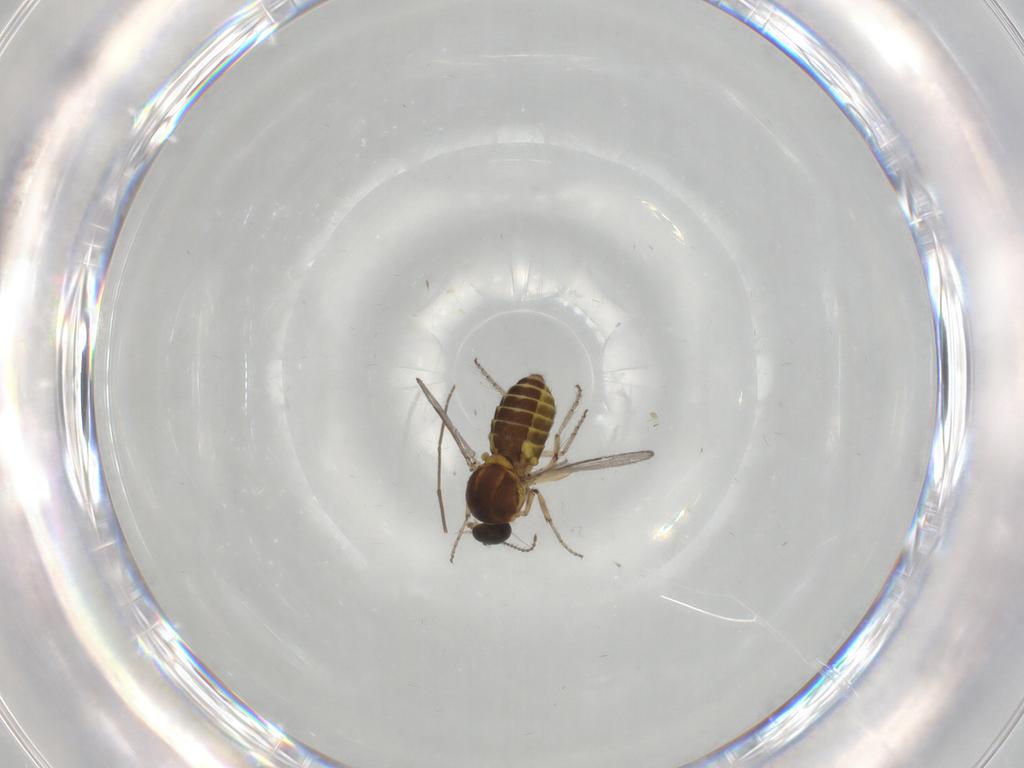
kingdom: Animalia
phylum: Arthropoda
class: Insecta
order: Diptera
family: Ceratopogonidae
